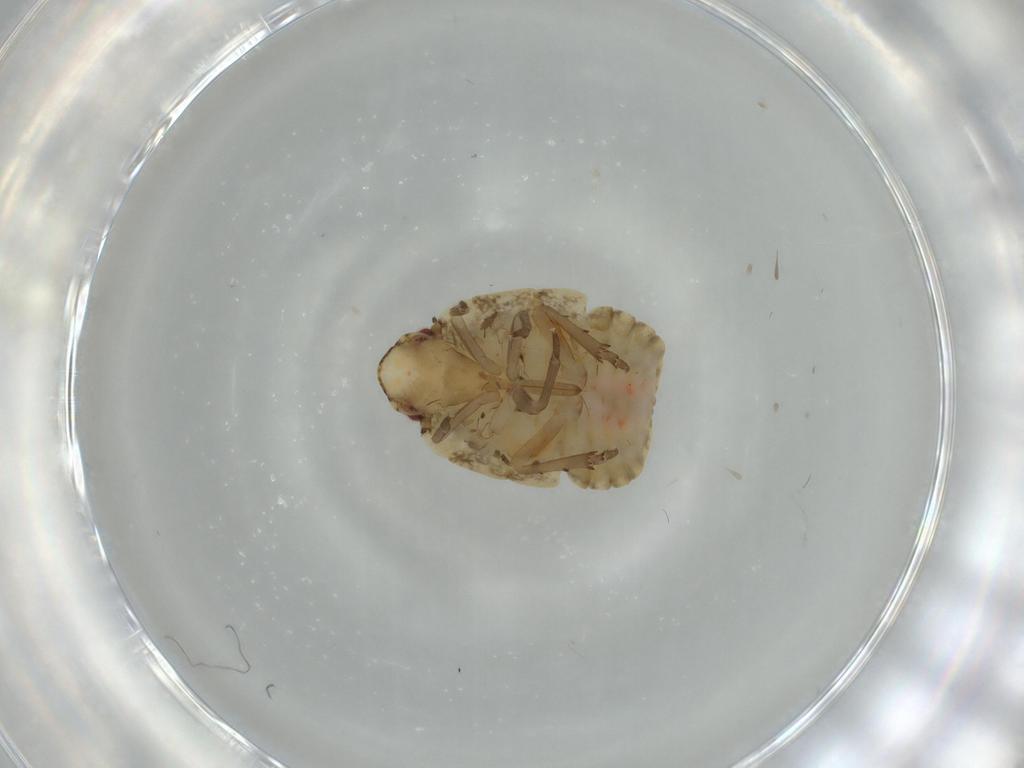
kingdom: Animalia
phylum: Arthropoda
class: Insecta
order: Hemiptera
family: Flatidae
